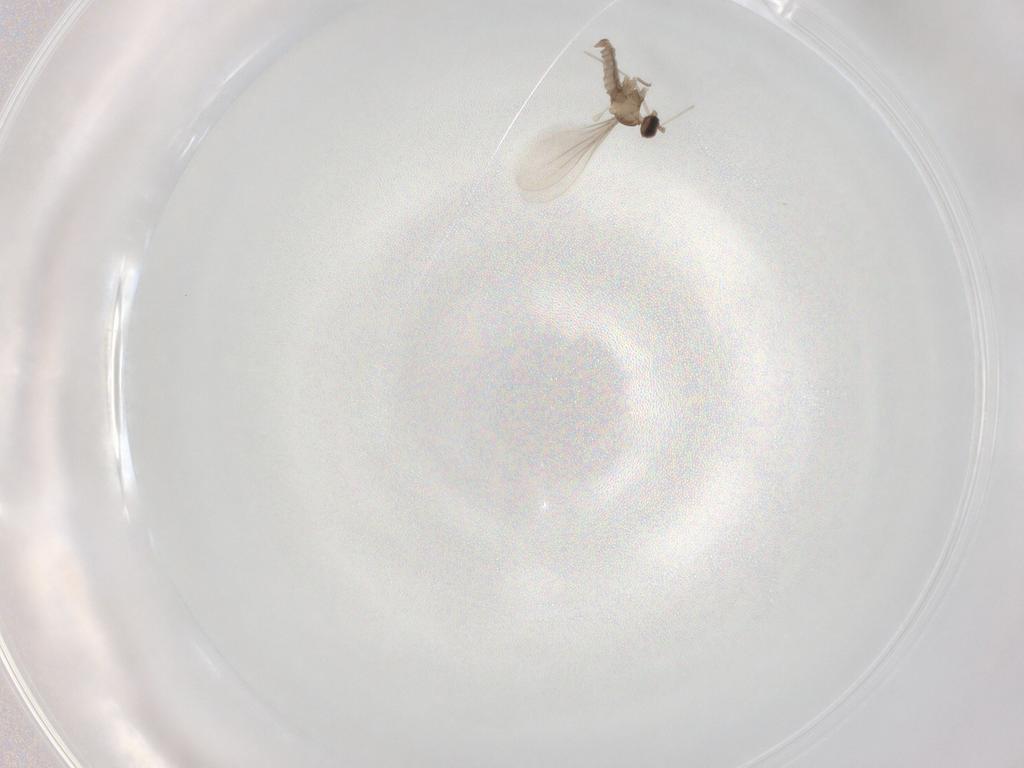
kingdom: Animalia
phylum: Arthropoda
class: Insecta
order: Diptera
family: Cecidomyiidae
